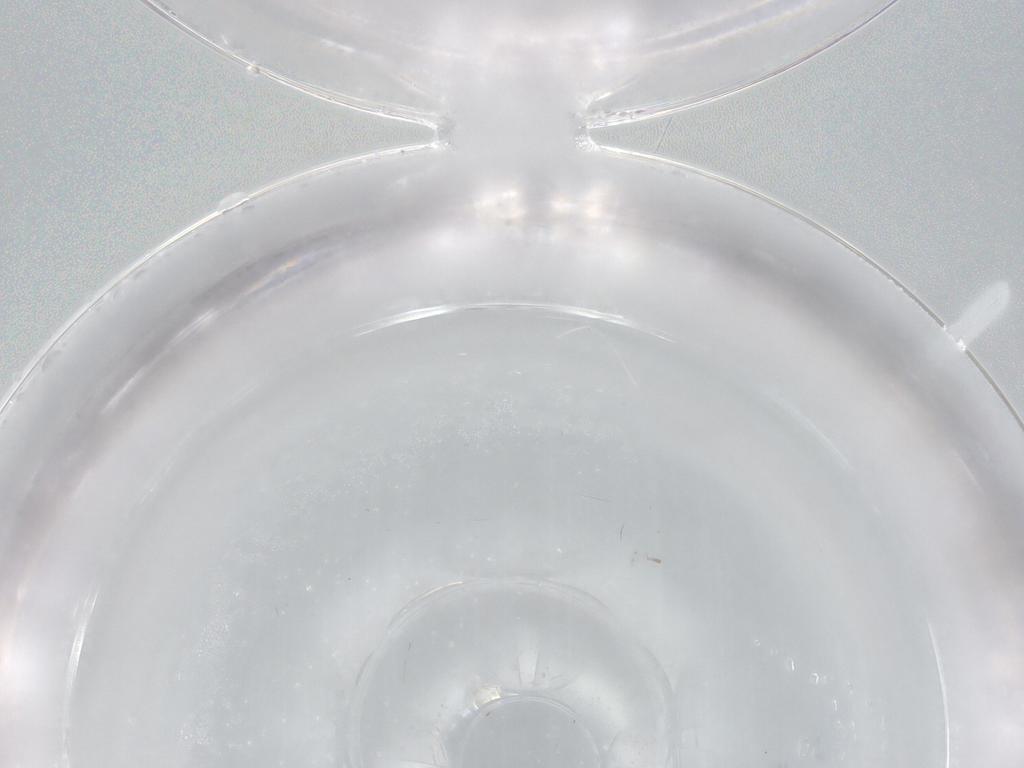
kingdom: Animalia
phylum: Arthropoda
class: Insecta
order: Diptera
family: Chironomidae
